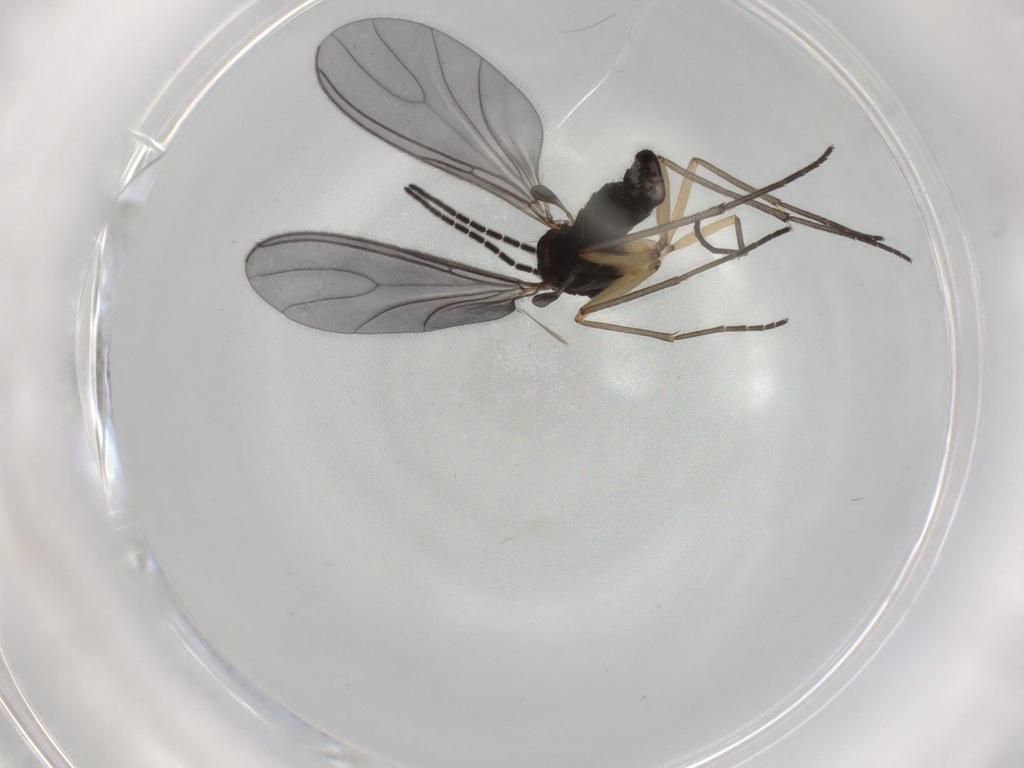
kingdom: Animalia
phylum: Arthropoda
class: Insecta
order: Diptera
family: Sciaridae
